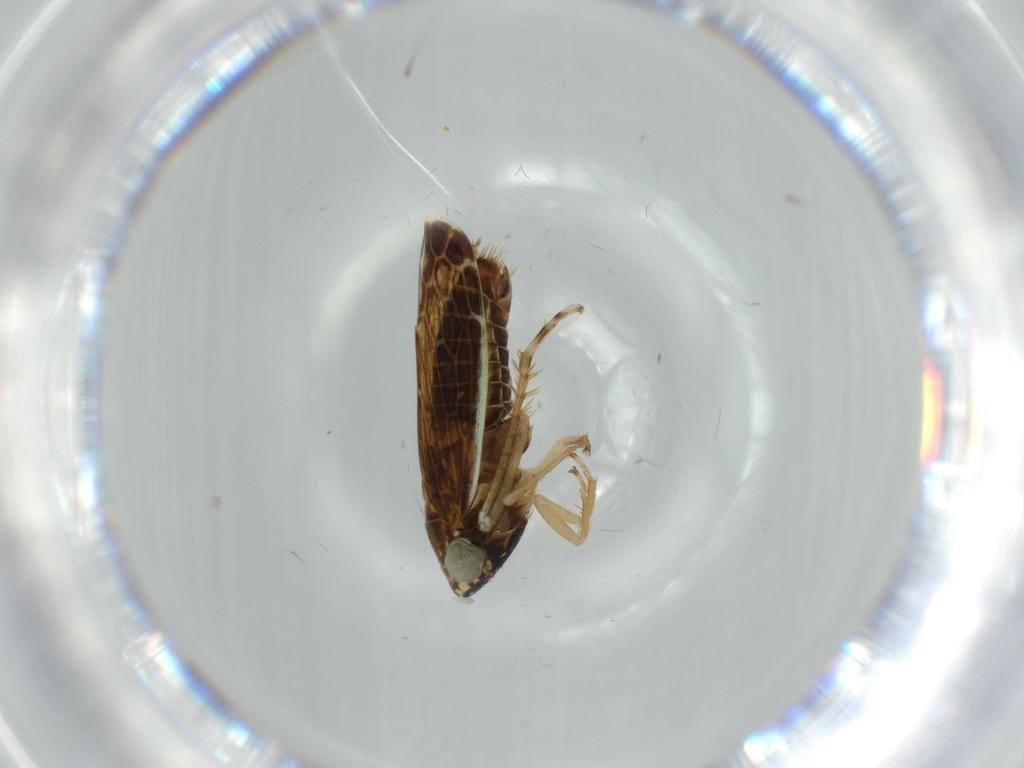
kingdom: Animalia
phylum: Arthropoda
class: Insecta
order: Hemiptera
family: Cicadellidae
